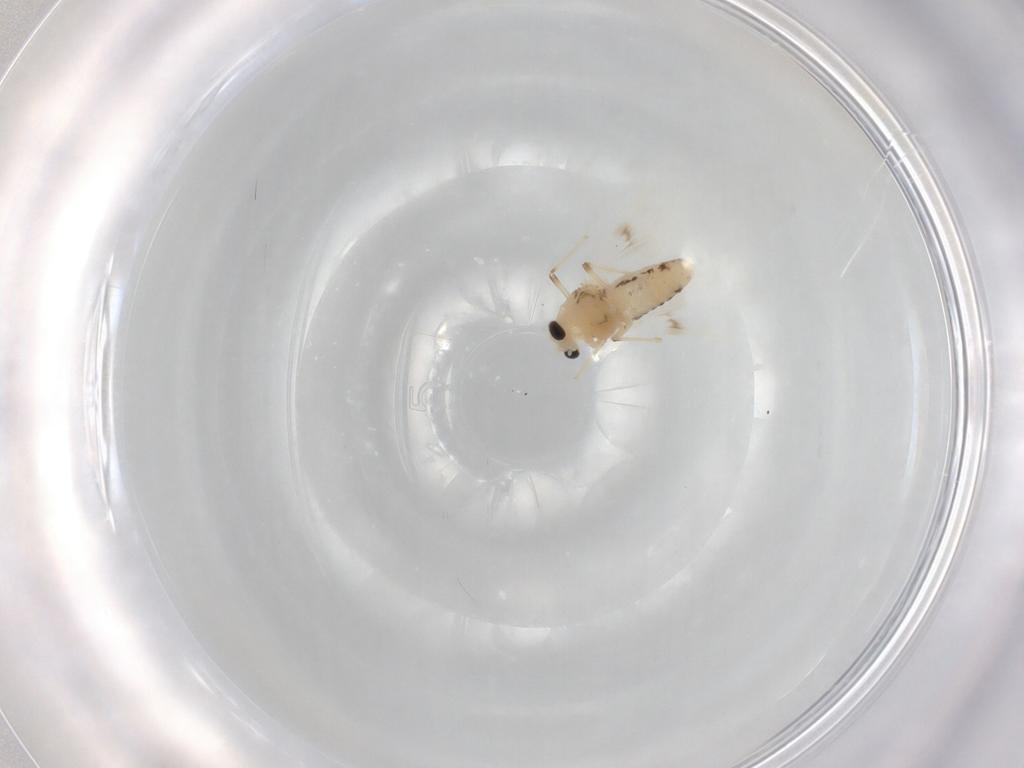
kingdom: Animalia
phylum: Arthropoda
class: Insecta
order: Diptera
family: Chironomidae
